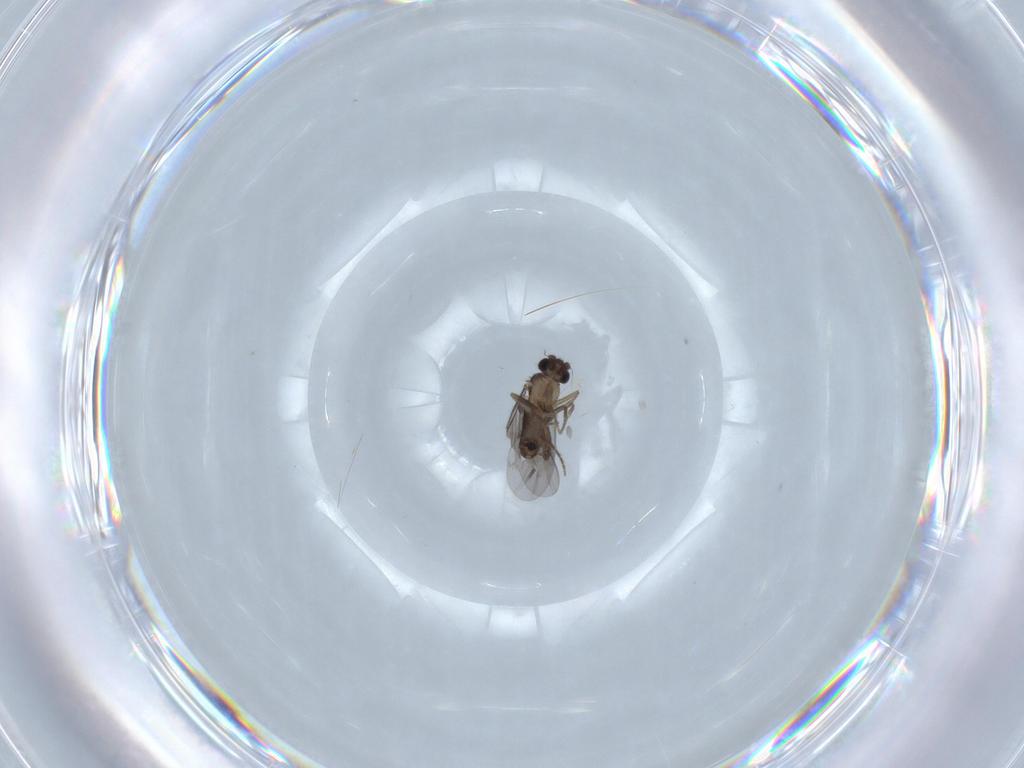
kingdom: Animalia
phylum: Arthropoda
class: Insecta
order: Diptera
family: Sciaridae
